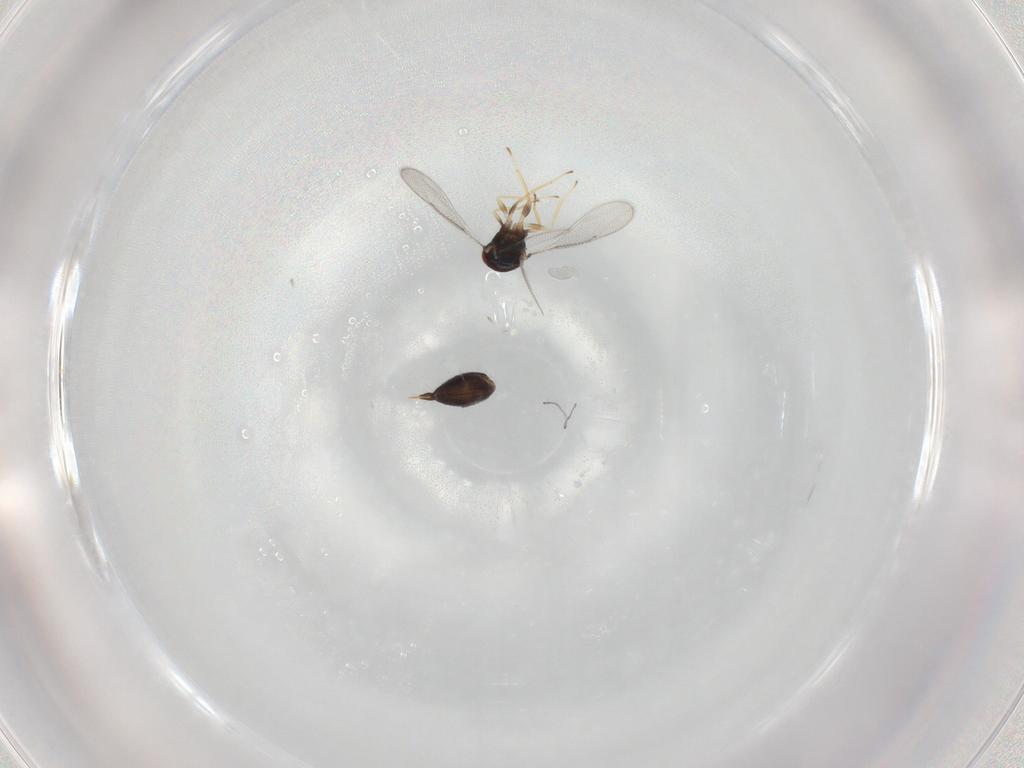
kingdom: Animalia
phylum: Arthropoda
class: Insecta
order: Hymenoptera
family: Eulophidae
